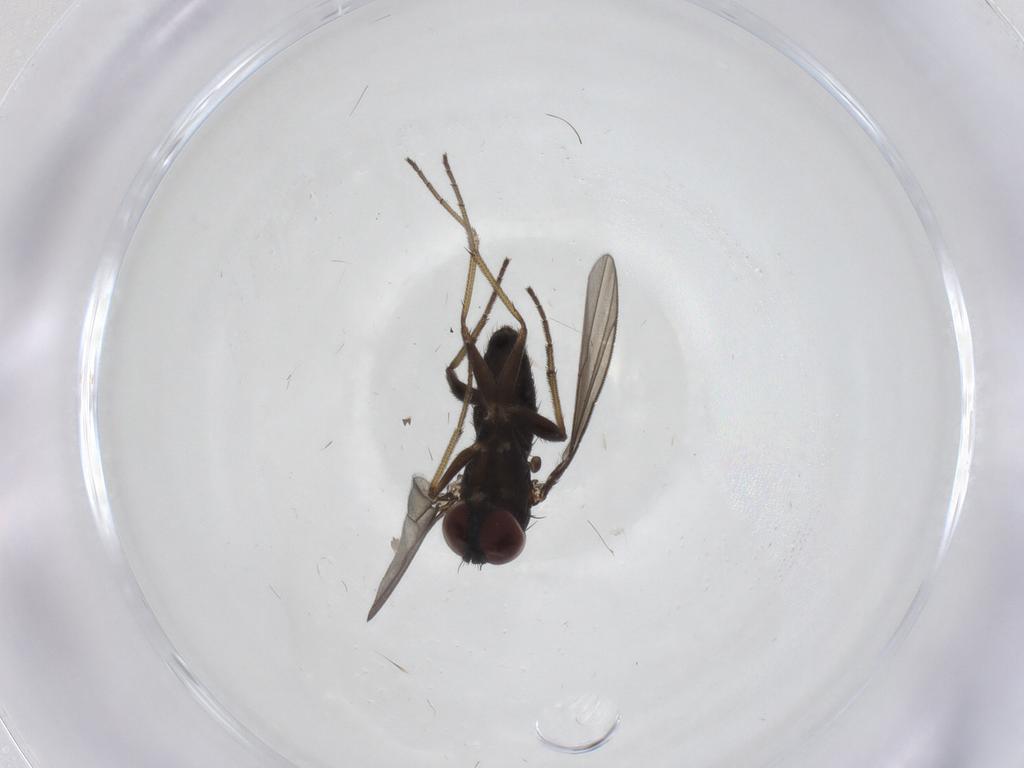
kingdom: Animalia
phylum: Arthropoda
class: Insecta
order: Diptera
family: Dolichopodidae
